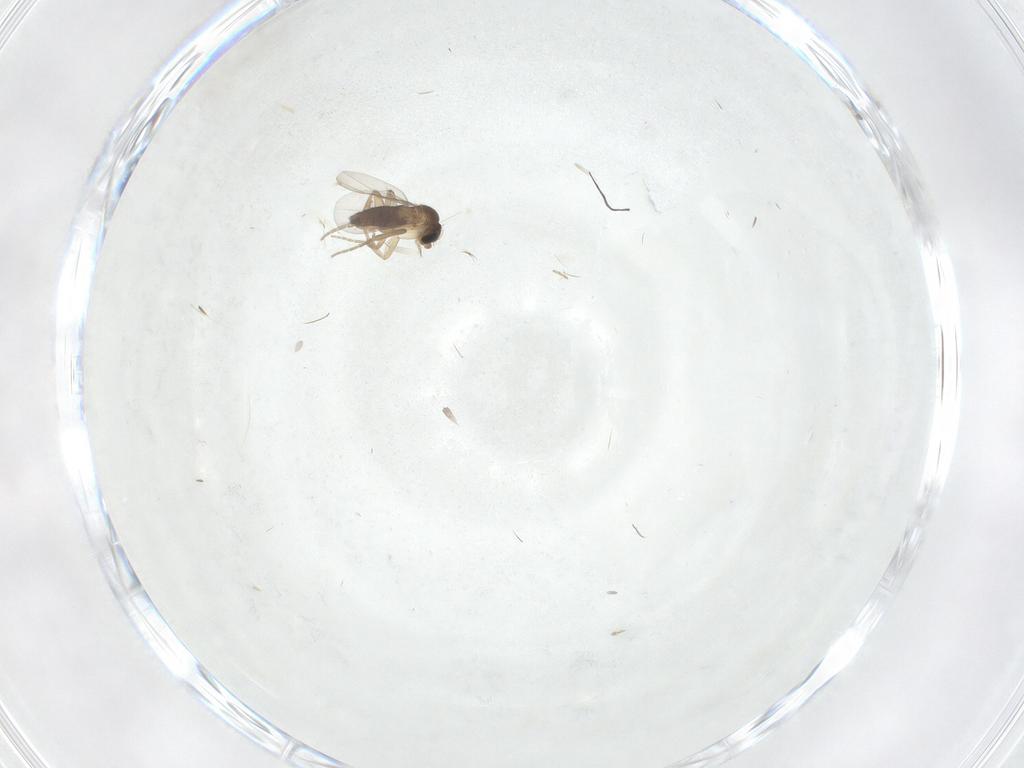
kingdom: Animalia
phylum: Arthropoda
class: Insecta
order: Diptera
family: Phoridae
